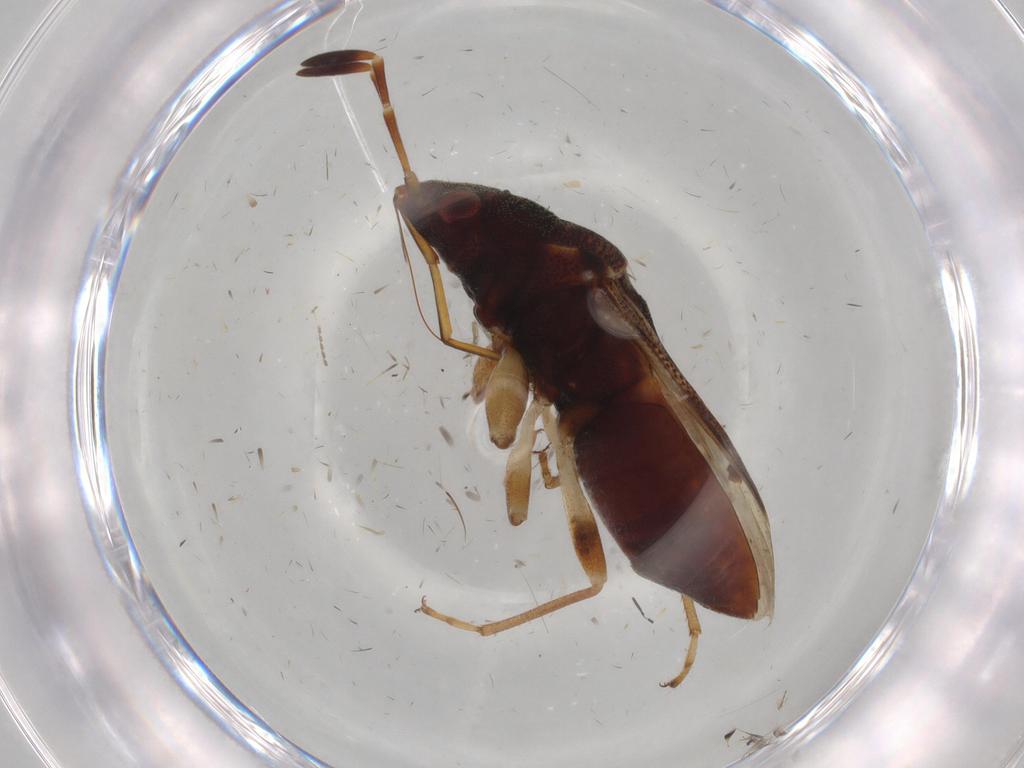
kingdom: Animalia
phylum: Arthropoda
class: Insecta
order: Hemiptera
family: Rhyparochromidae
